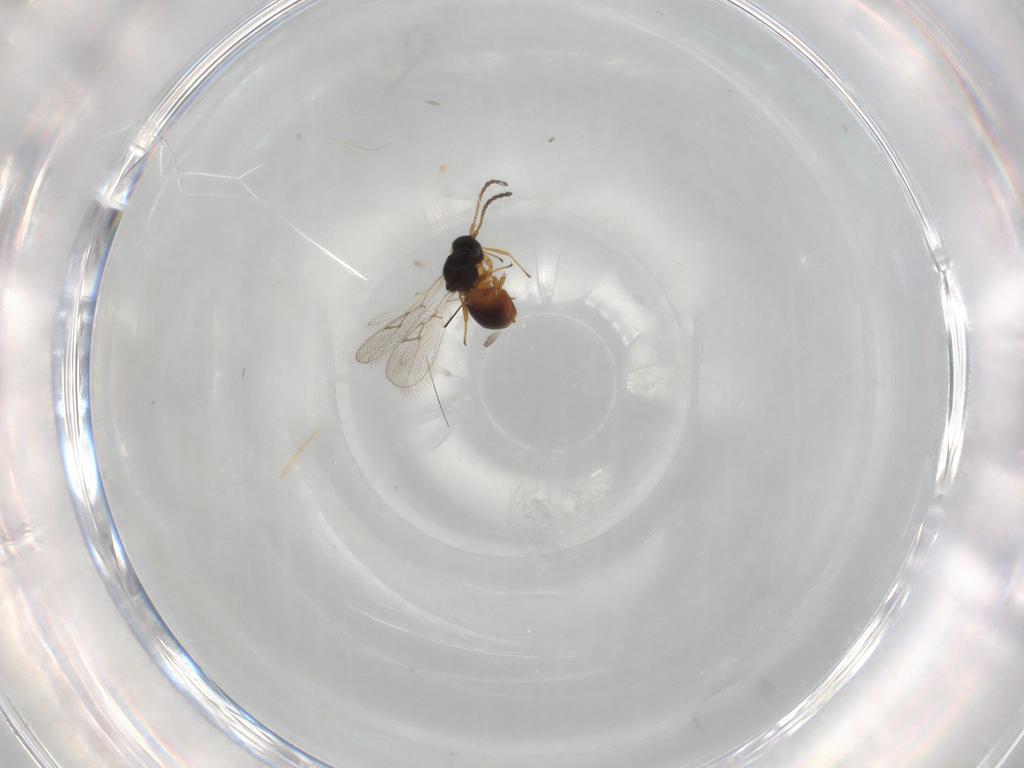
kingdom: Animalia
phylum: Arthropoda
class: Insecta
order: Hymenoptera
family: Figitidae
